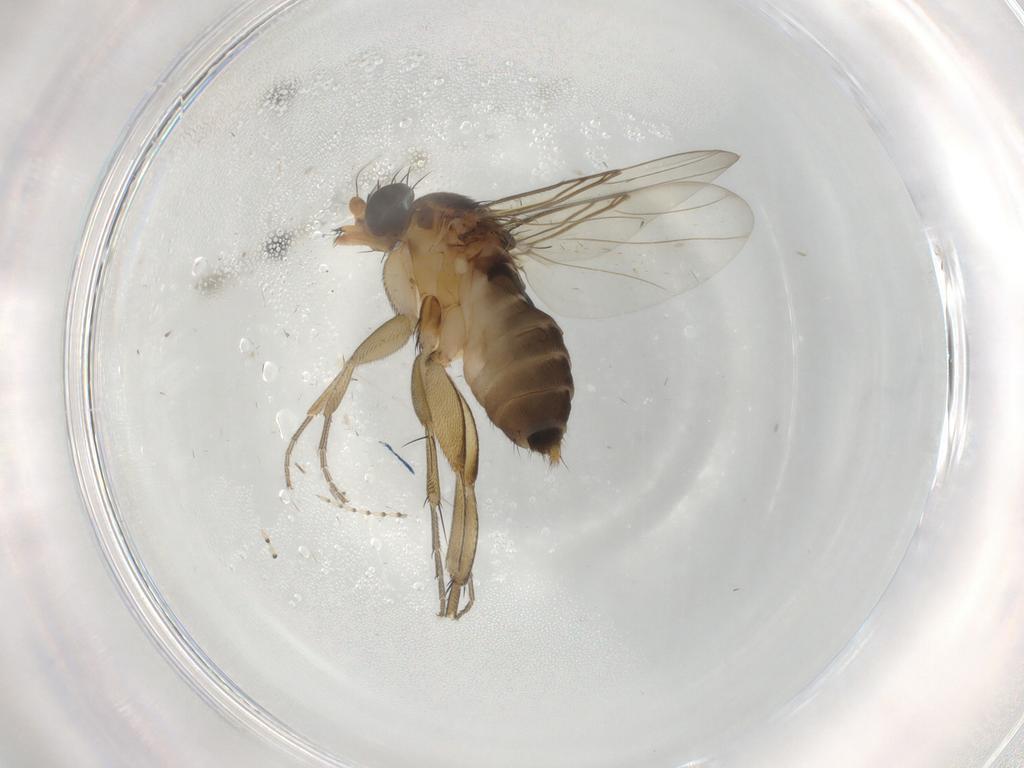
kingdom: Animalia
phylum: Arthropoda
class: Insecta
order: Diptera
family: Phoridae
